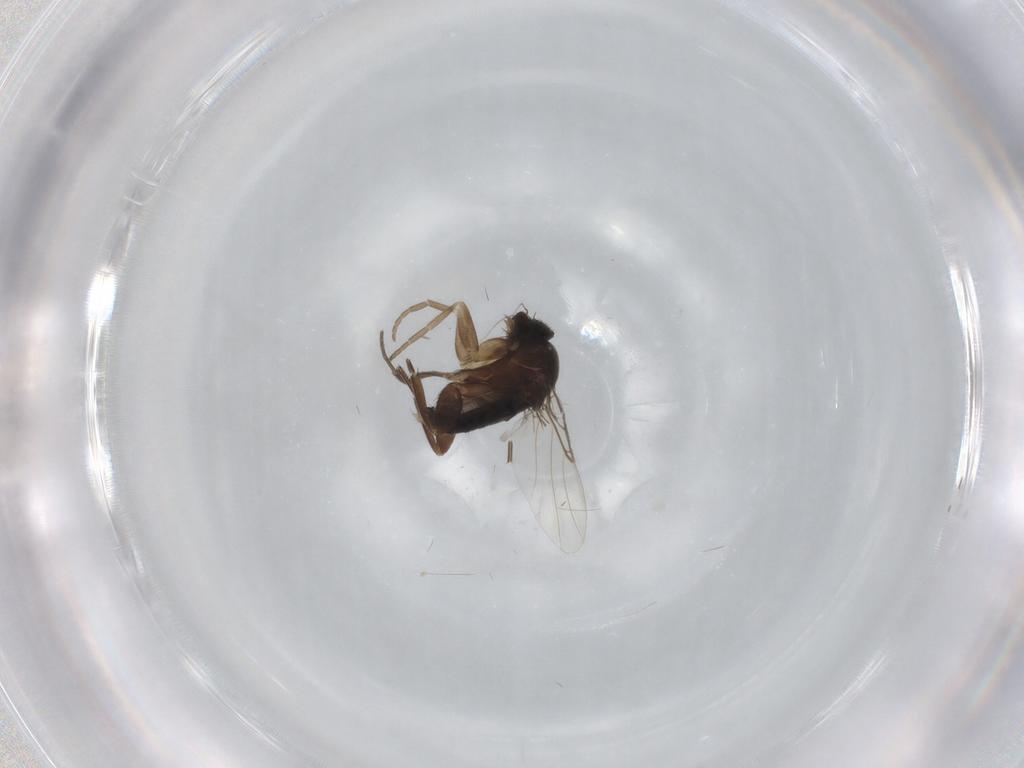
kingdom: Animalia
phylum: Arthropoda
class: Insecta
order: Diptera
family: Phoridae
